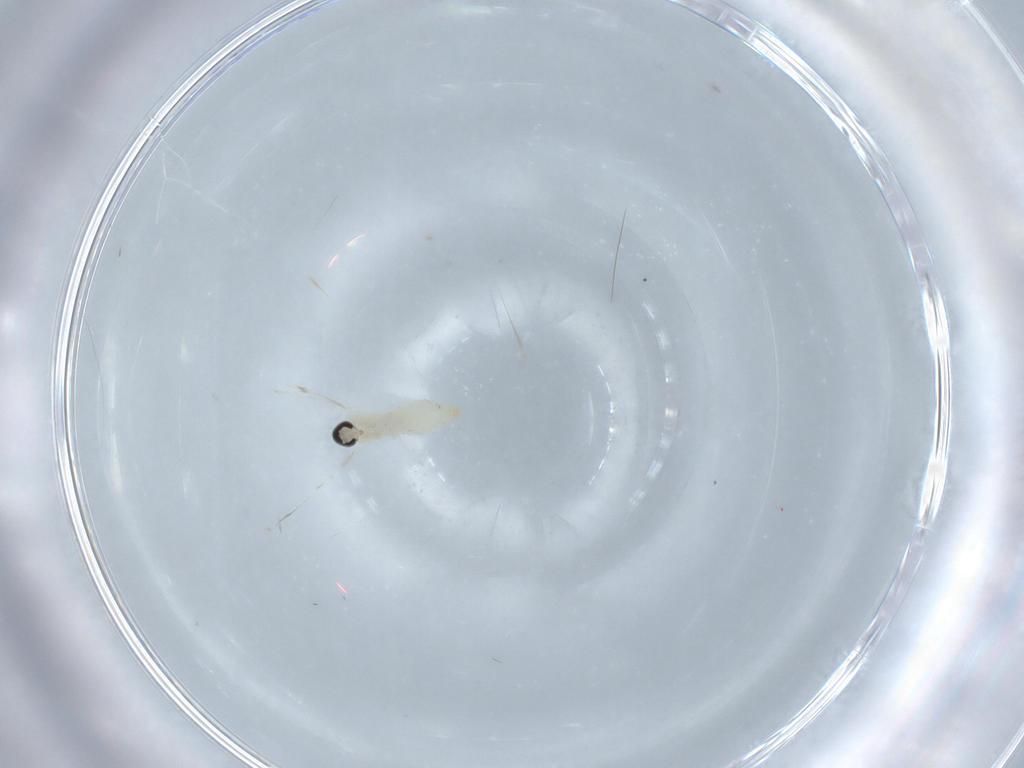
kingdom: Animalia
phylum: Arthropoda
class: Insecta
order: Diptera
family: Cecidomyiidae
